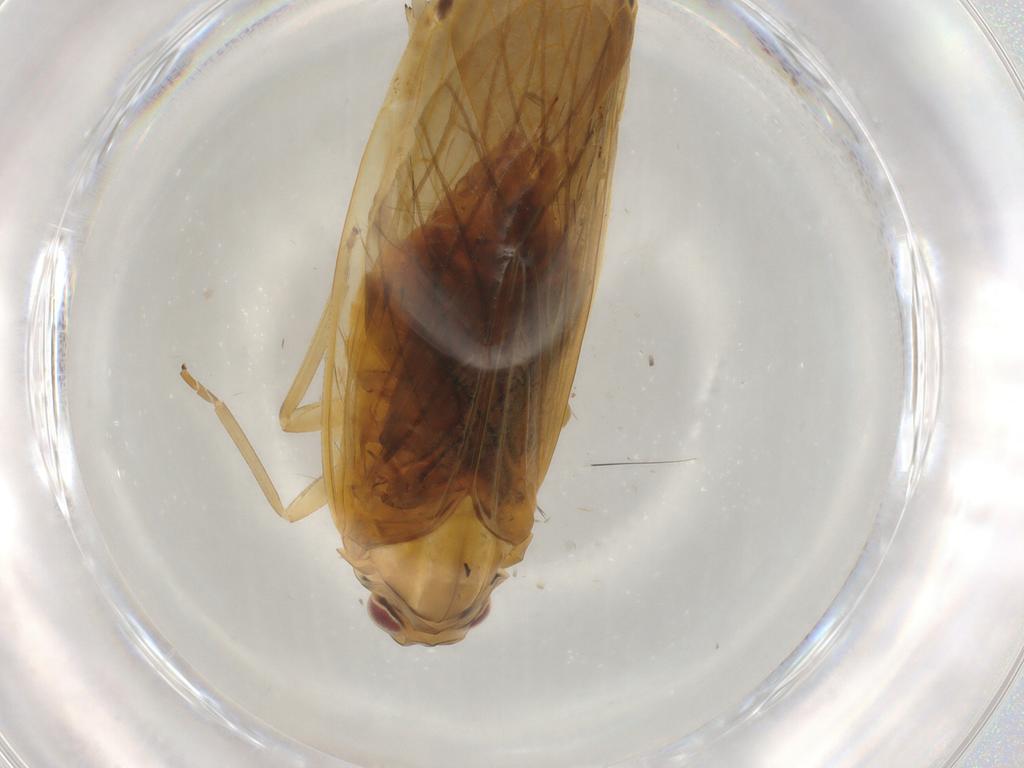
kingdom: Animalia
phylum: Arthropoda
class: Insecta
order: Hemiptera
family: Achilidae
